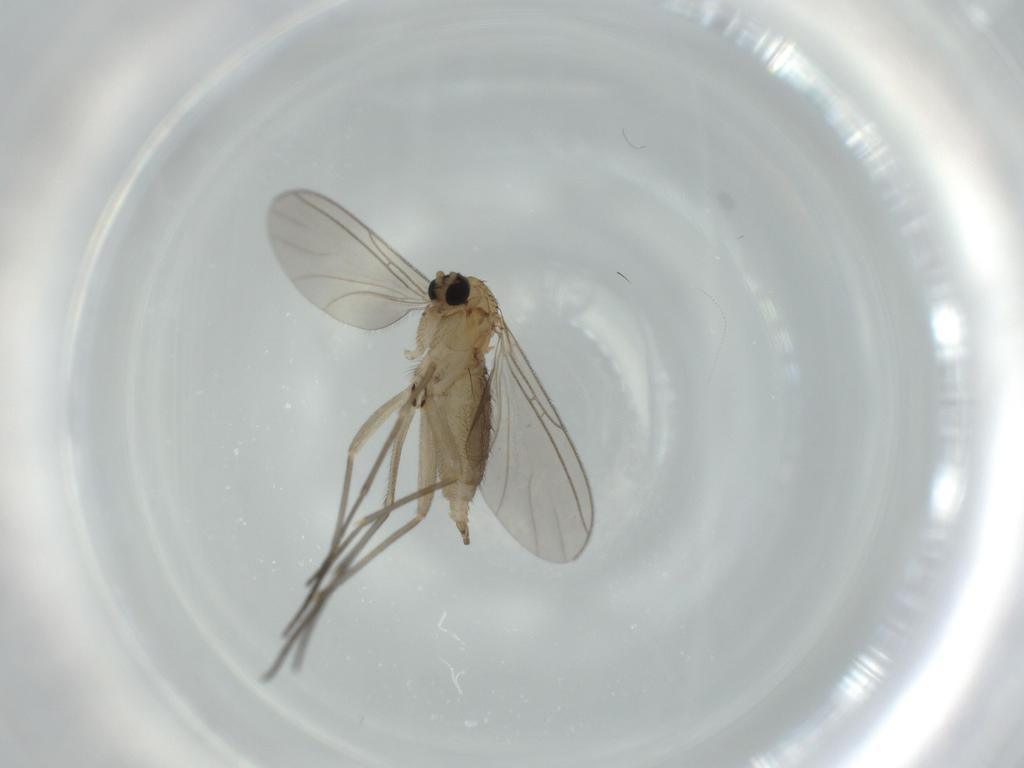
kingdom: Animalia
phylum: Arthropoda
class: Insecta
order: Diptera
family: Sciaridae
